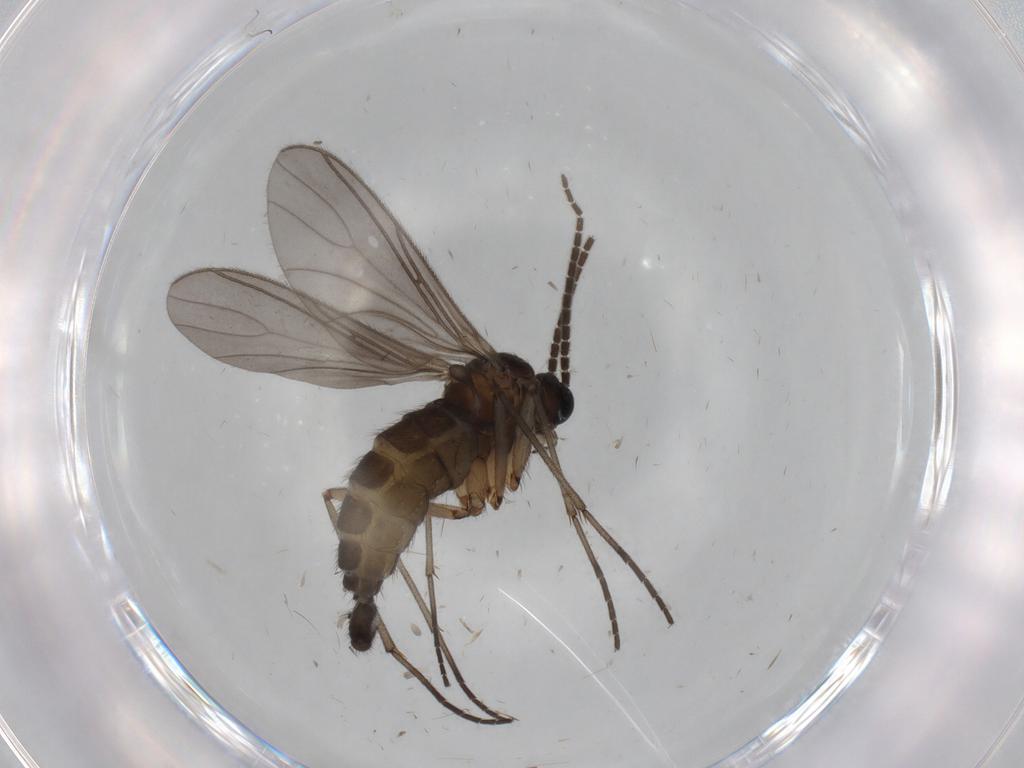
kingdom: Animalia
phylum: Arthropoda
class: Insecta
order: Diptera
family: Sciaridae
